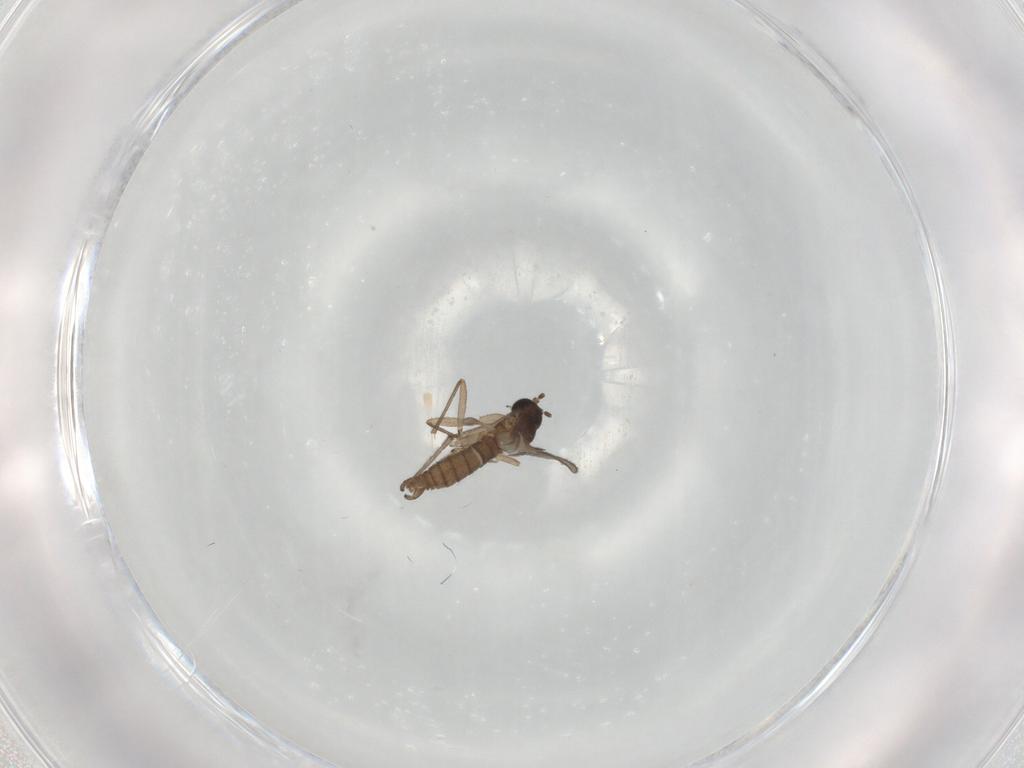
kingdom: Animalia
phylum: Arthropoda
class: Insecta
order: Diptera
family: Sciaridae
